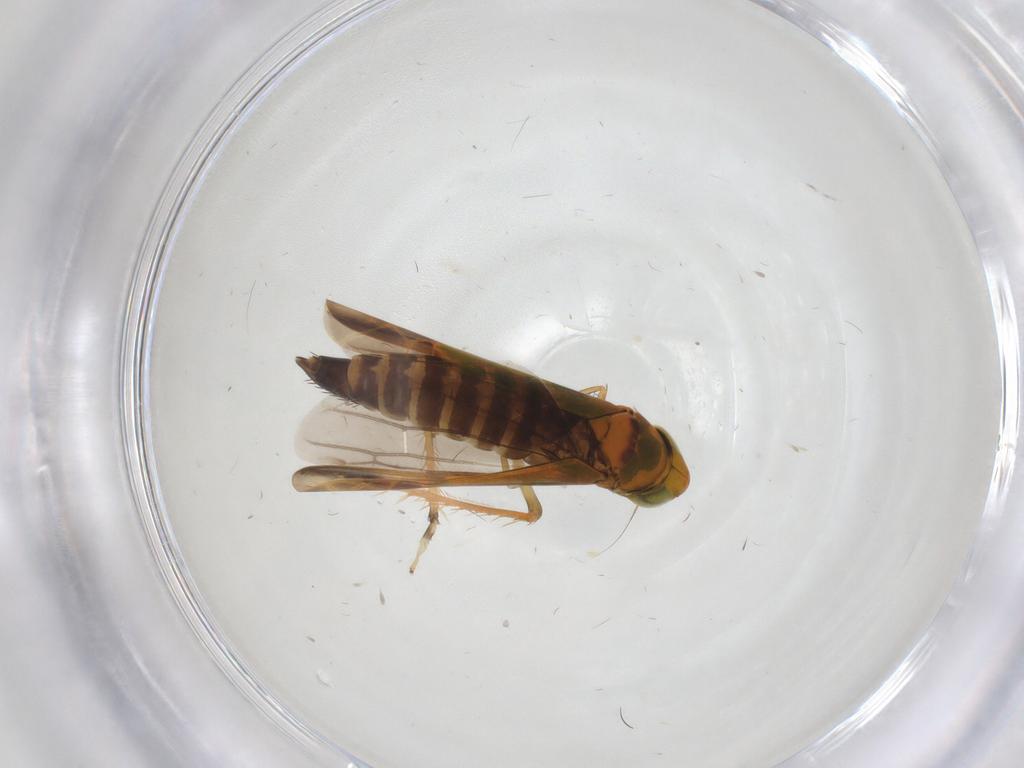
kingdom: Animalia
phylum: Arthropoda
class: Insecta
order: Hemiptera
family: Cicadellidae
